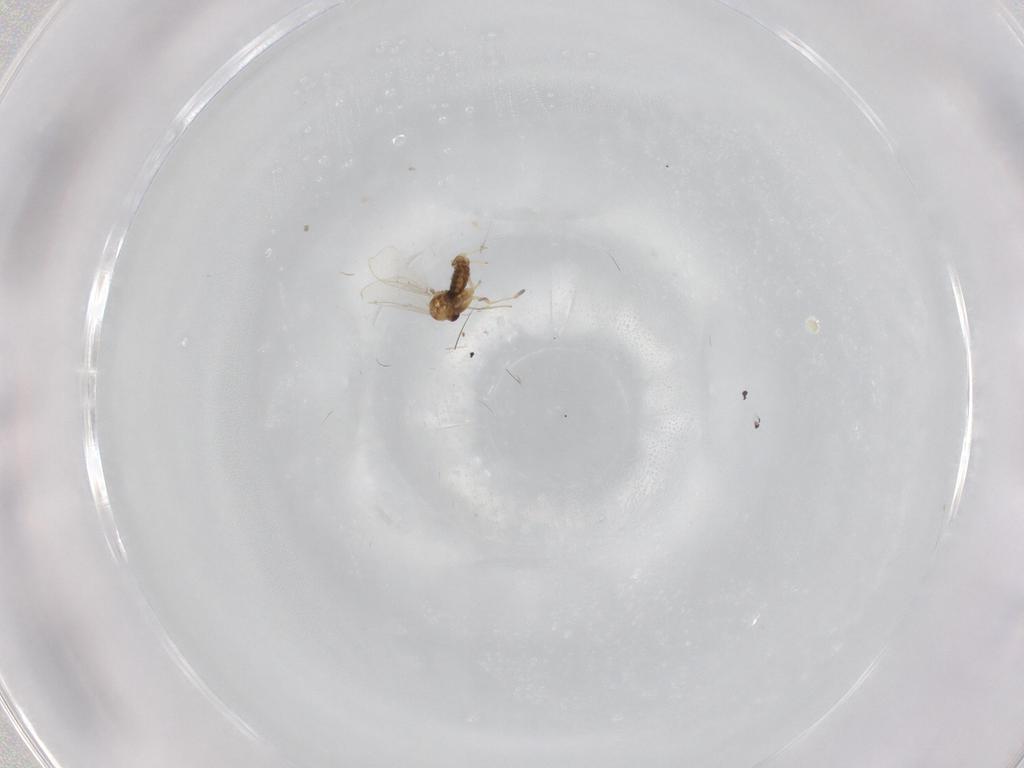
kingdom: Animalia
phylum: Arthropoda
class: Insecta
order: Diptera
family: Chironomidae
